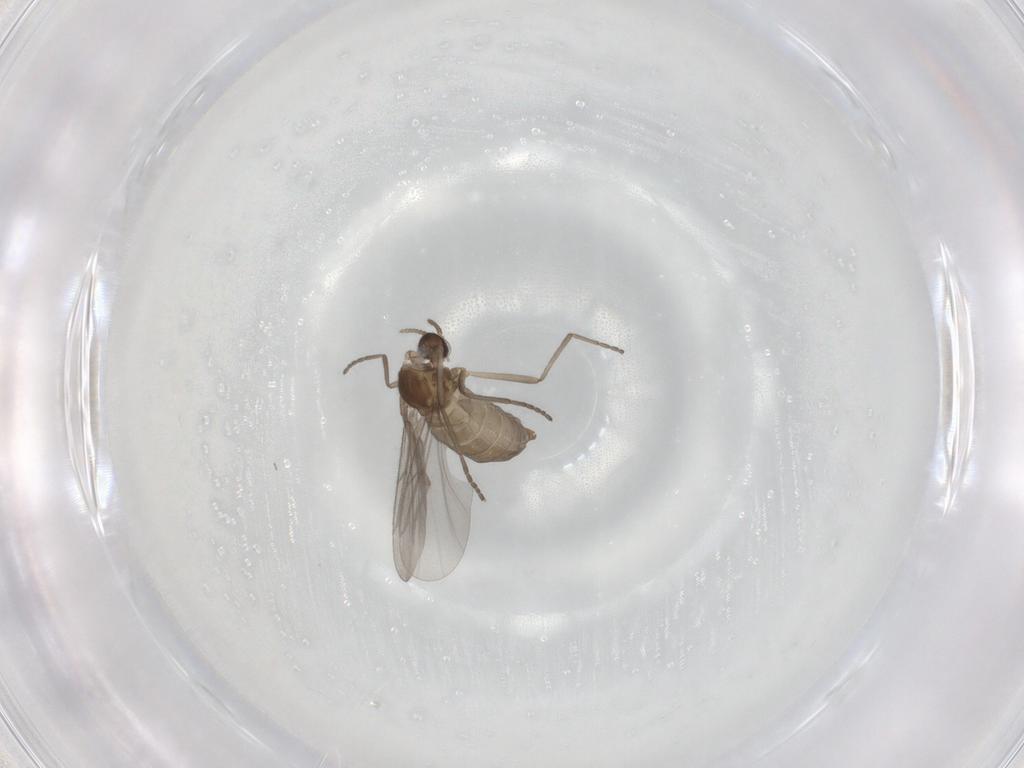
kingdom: Animalia
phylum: Arthropoda
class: Insecta
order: Diptera
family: Cecidomyiidae
